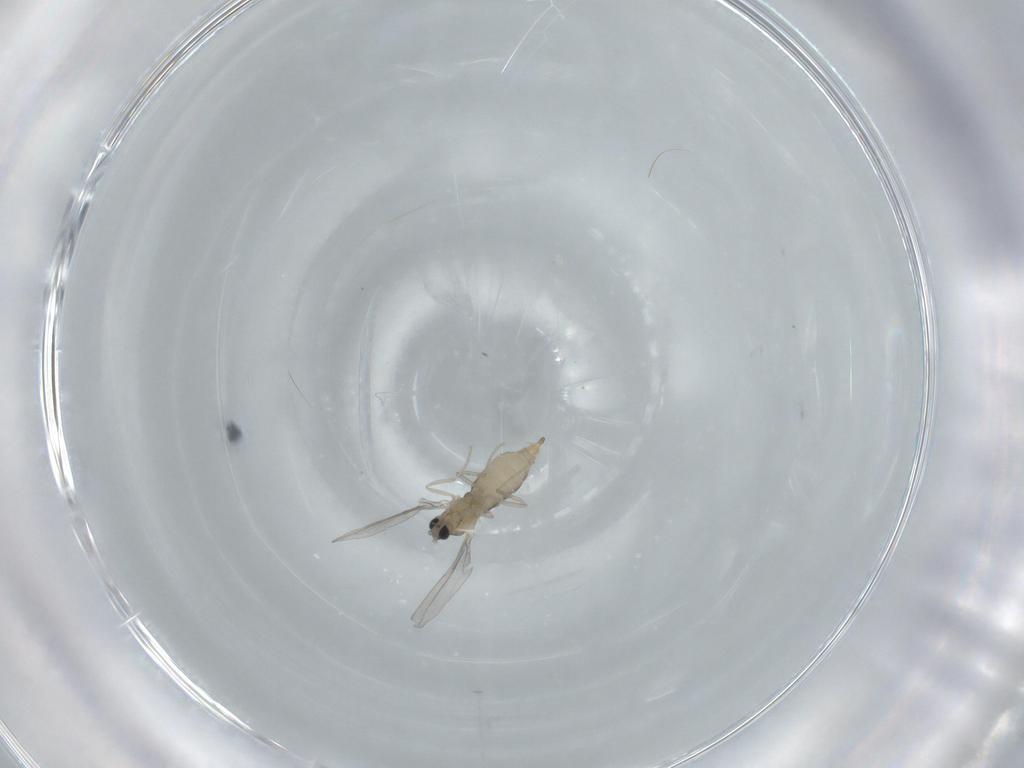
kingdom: Animalia
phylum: Arthropoda
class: Insecta
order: Diptera
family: Cecidomyiidae
